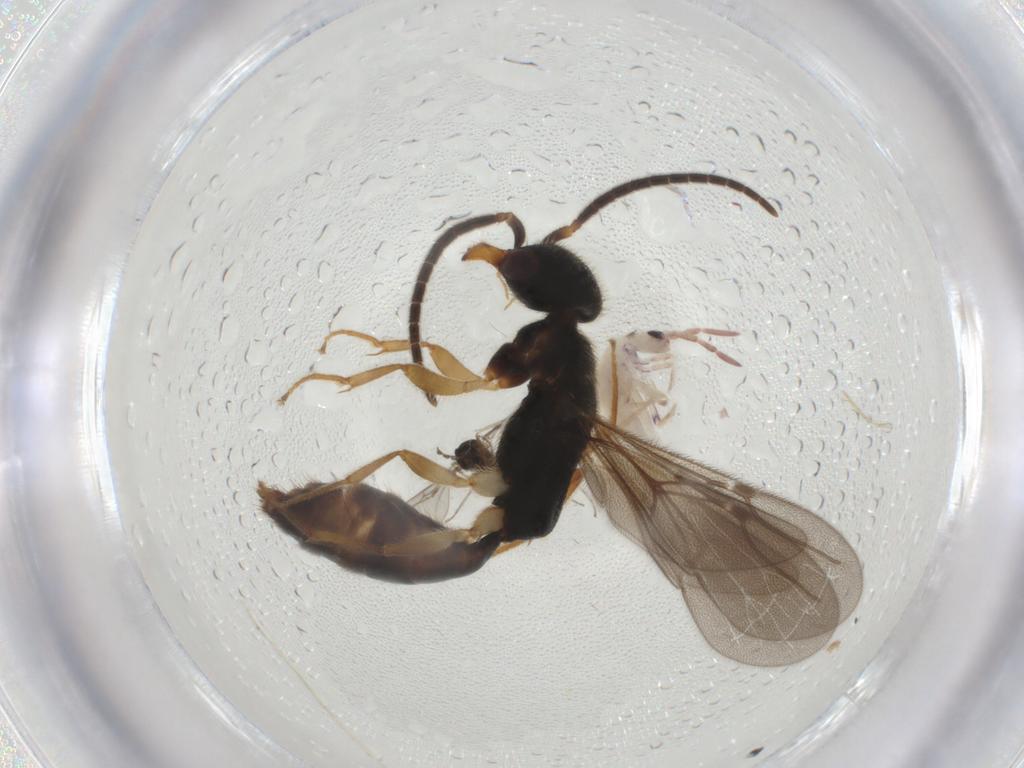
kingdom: Animalia
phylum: Arthropoda
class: Collembola
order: Entomobryomorpha
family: Entomobryidae
